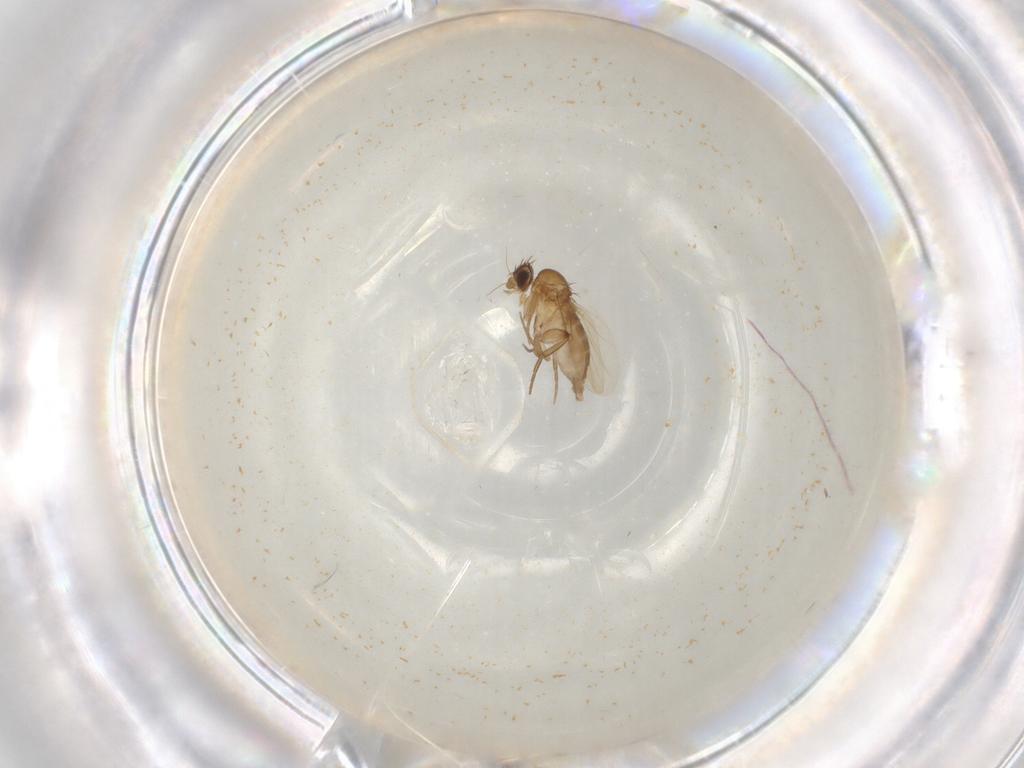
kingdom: Animalia
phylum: Arthropoda
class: Insecta
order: Diptera
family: Phoridae
